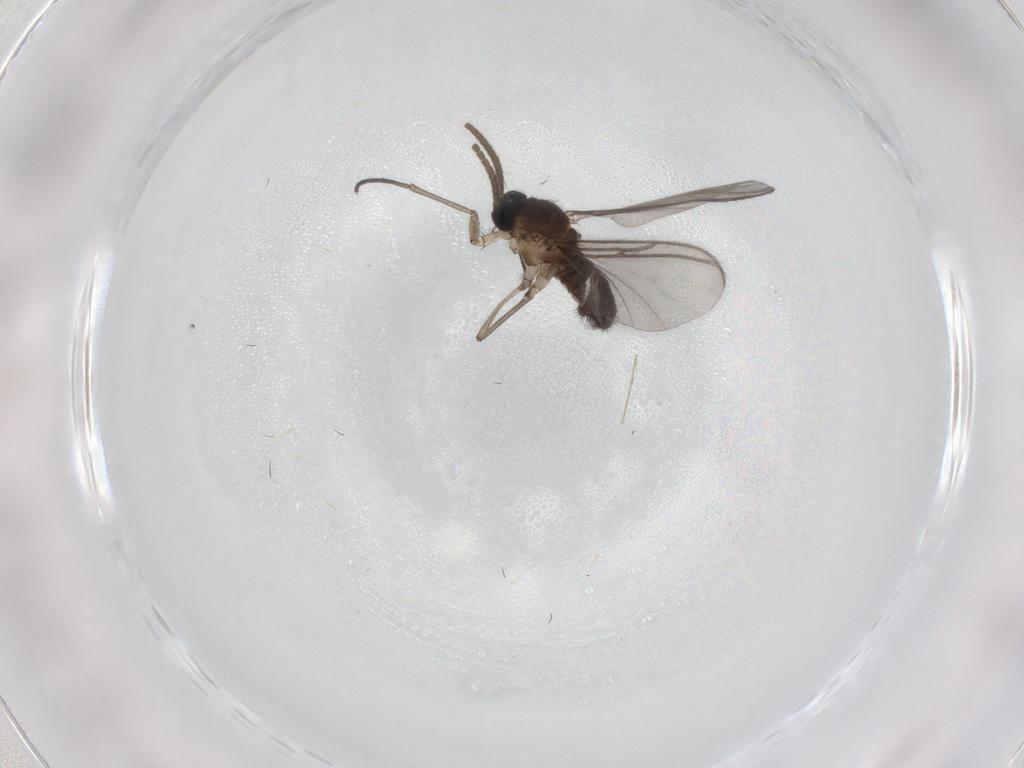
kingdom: Animalia
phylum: Arthropoda
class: Insecta
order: Diptera
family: Sciaridae
